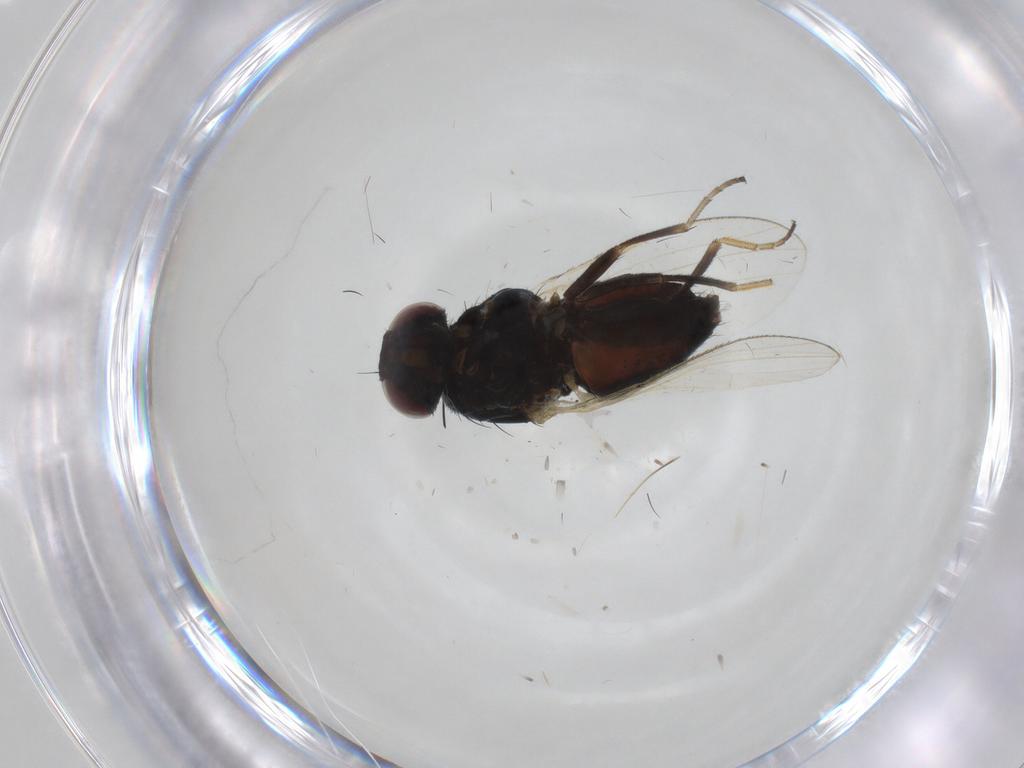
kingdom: Animalia
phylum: Arthropoda
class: Insecta
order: Diptera
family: Carnidae
